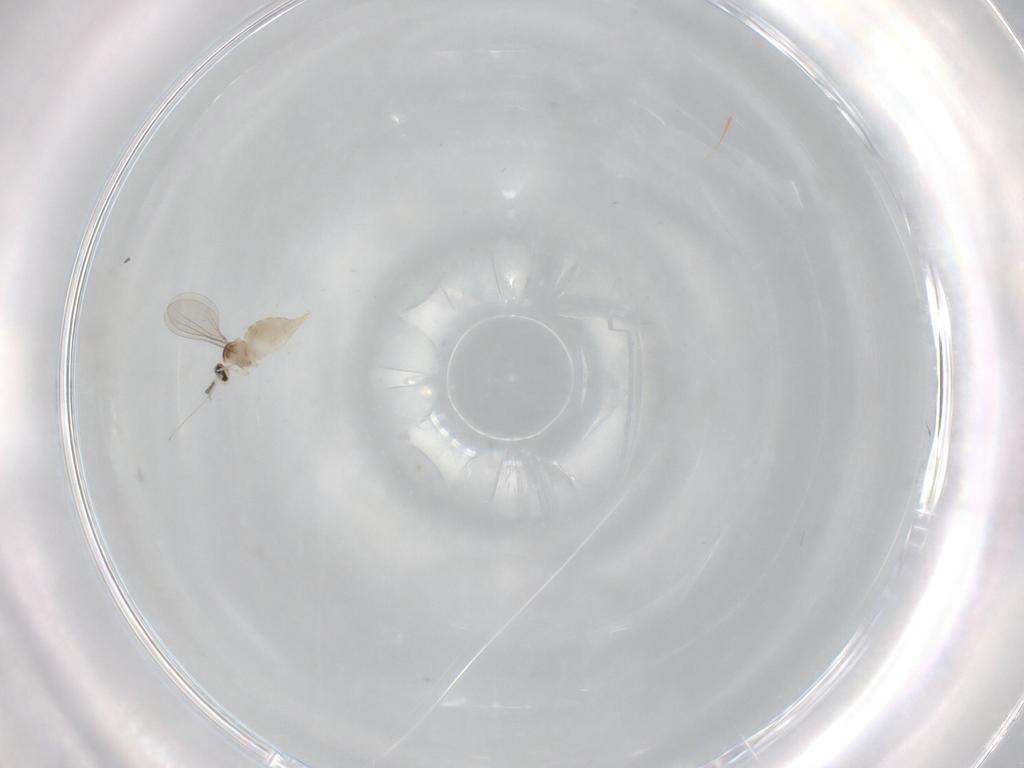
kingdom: Animalia
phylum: Arthropoda
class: Insecta
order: Diptera
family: Cecidomyiidae
